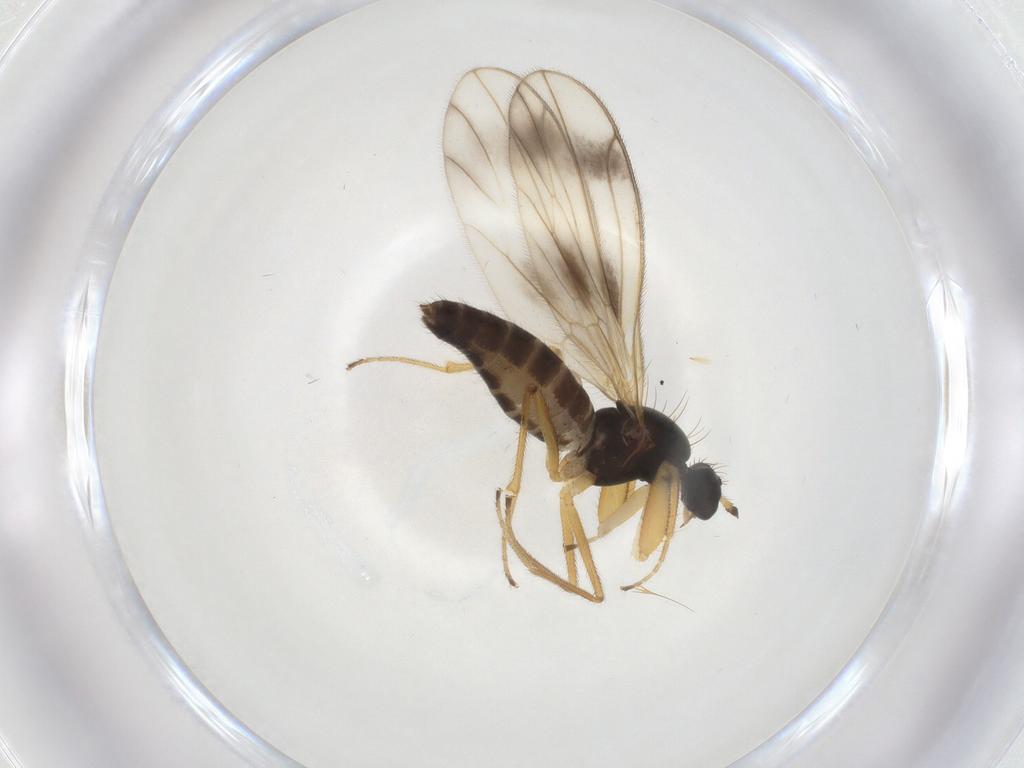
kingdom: Animalia
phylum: Arthropoda
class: Insecta
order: Diptera
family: Cecidomyiidae
